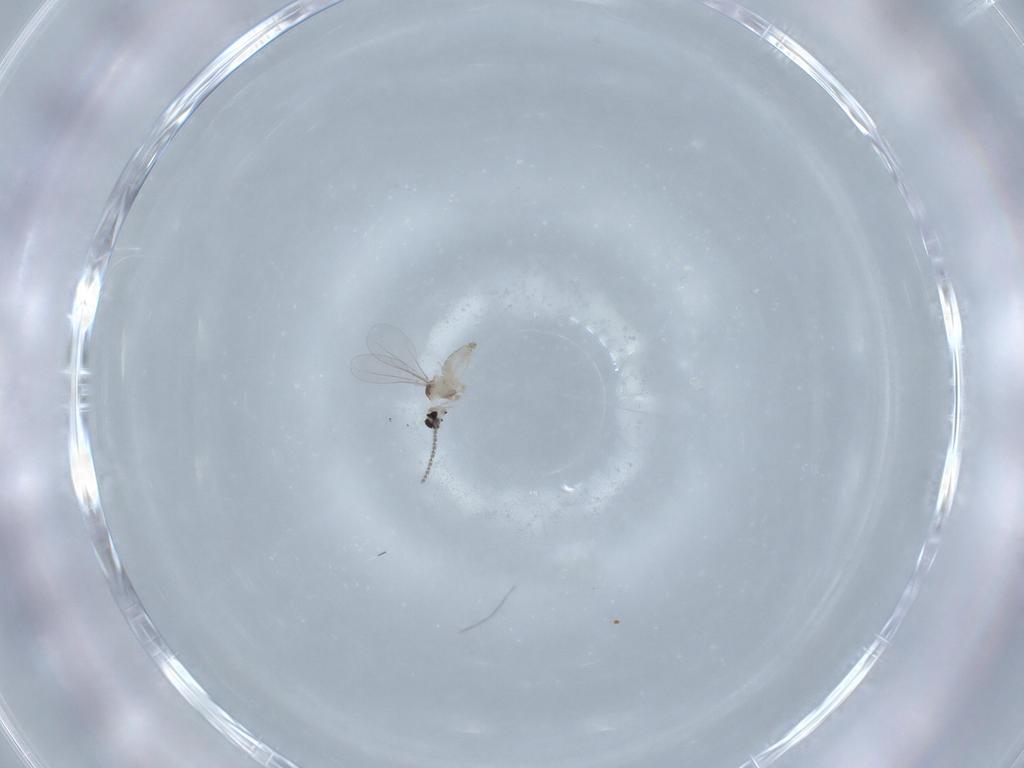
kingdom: Animalia
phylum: Arthropoda
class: Insecta
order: Diptera
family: Cecidomyiidae
